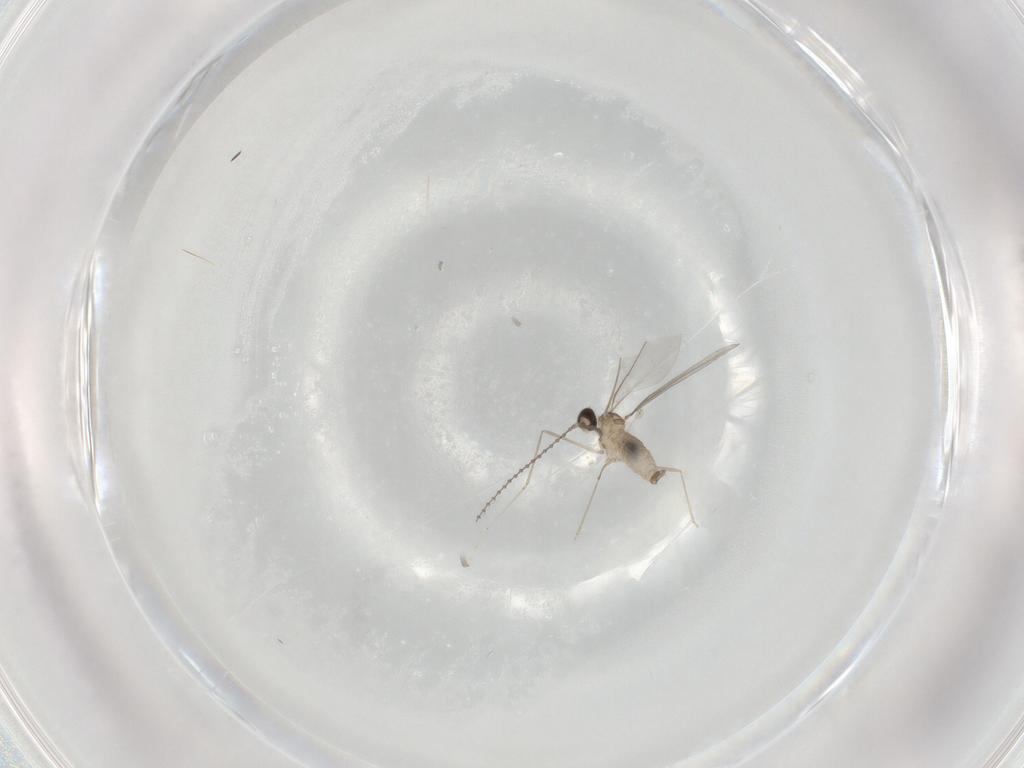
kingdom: Animalia
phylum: Arthropoda
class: Insecta
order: Diptera
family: Cecidomyiidae
